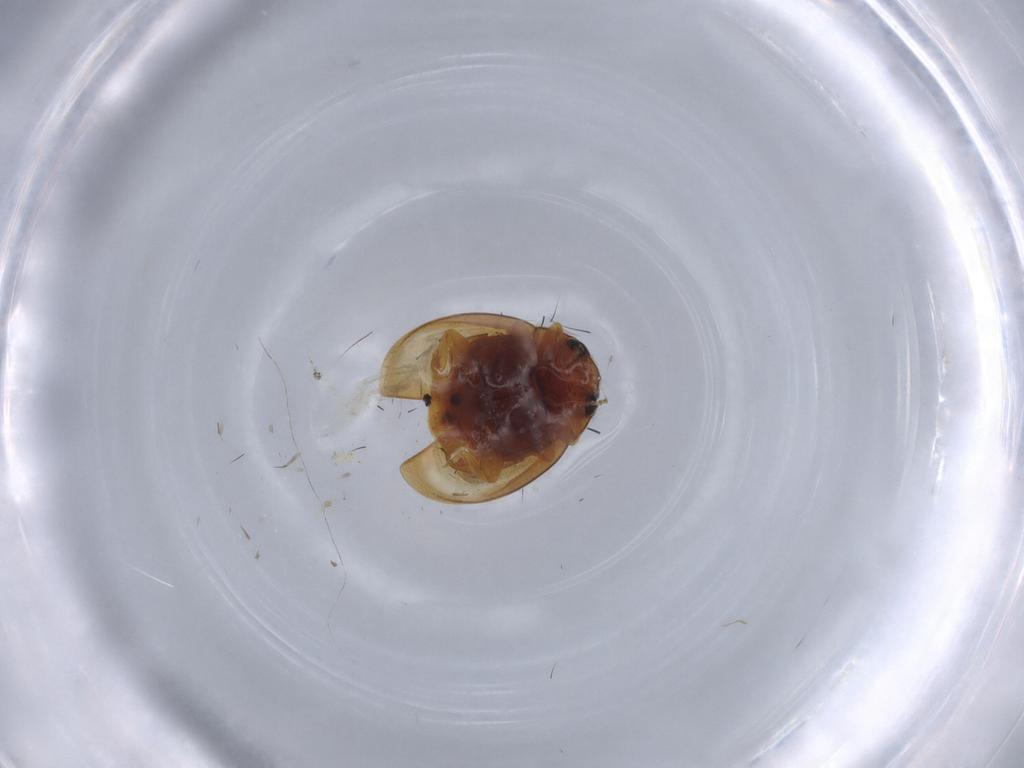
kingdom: Animalia
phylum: Arthropoda
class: Insecta
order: Coleoptera
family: Coccinellidae
